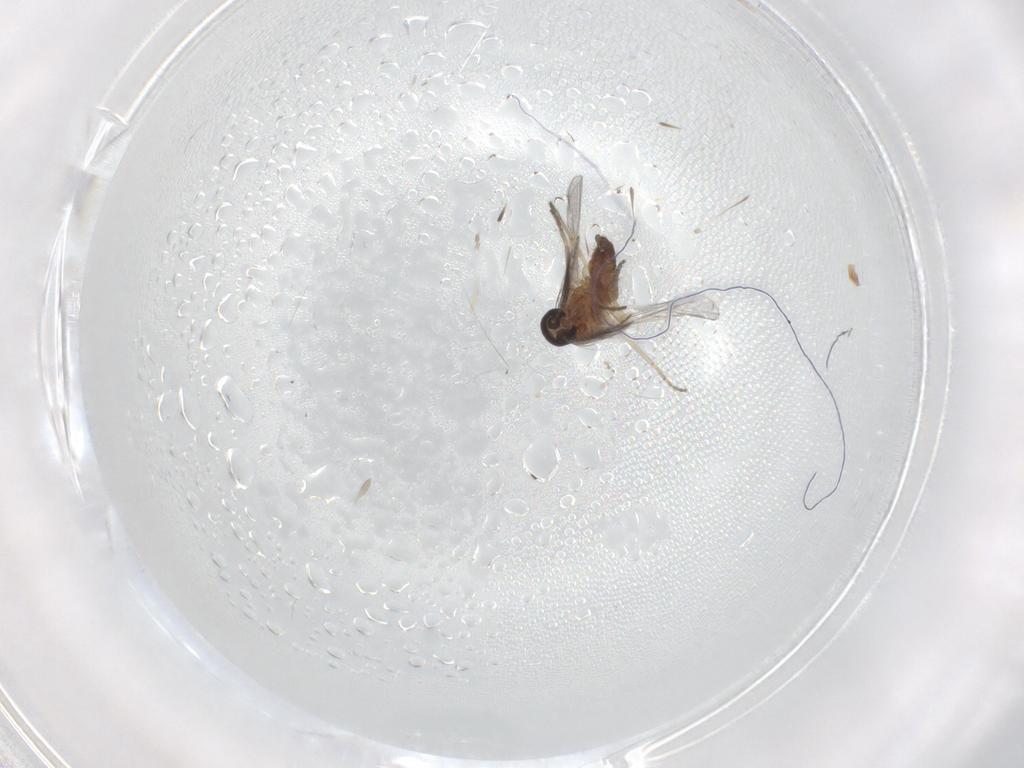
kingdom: Animalia
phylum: Arthropoda
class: Insecta
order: Diptera
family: Ceratopogonidae
